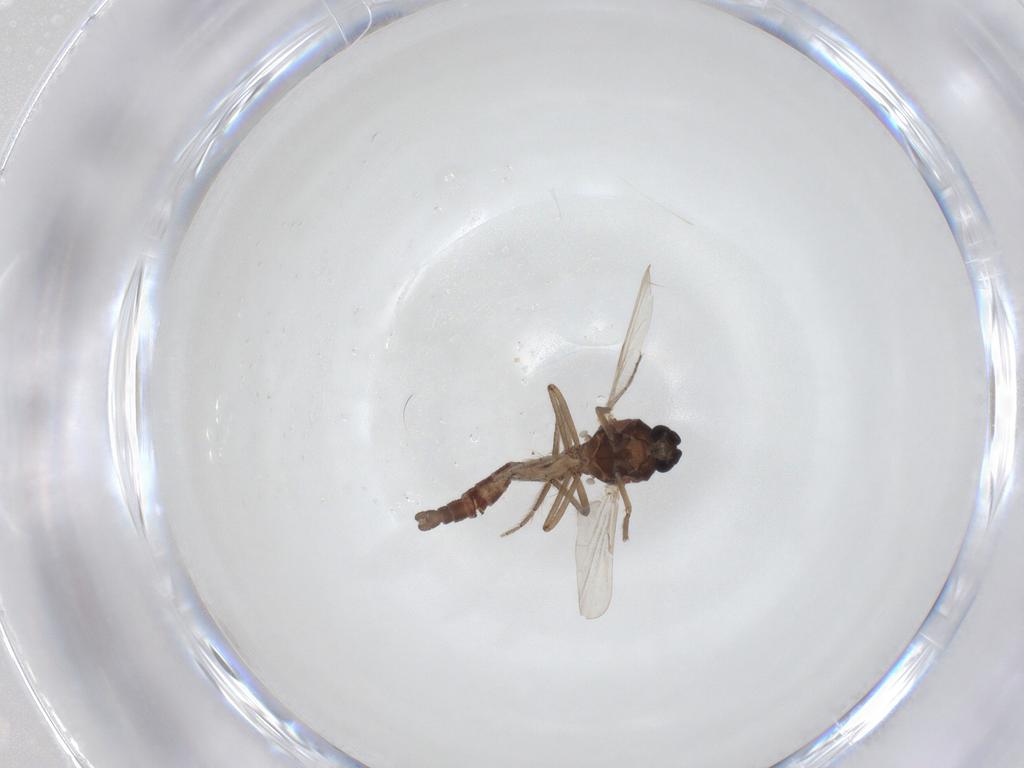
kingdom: Animalia
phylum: Arthropoda
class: Insecta
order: Diptera
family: Ceratopogonidae
